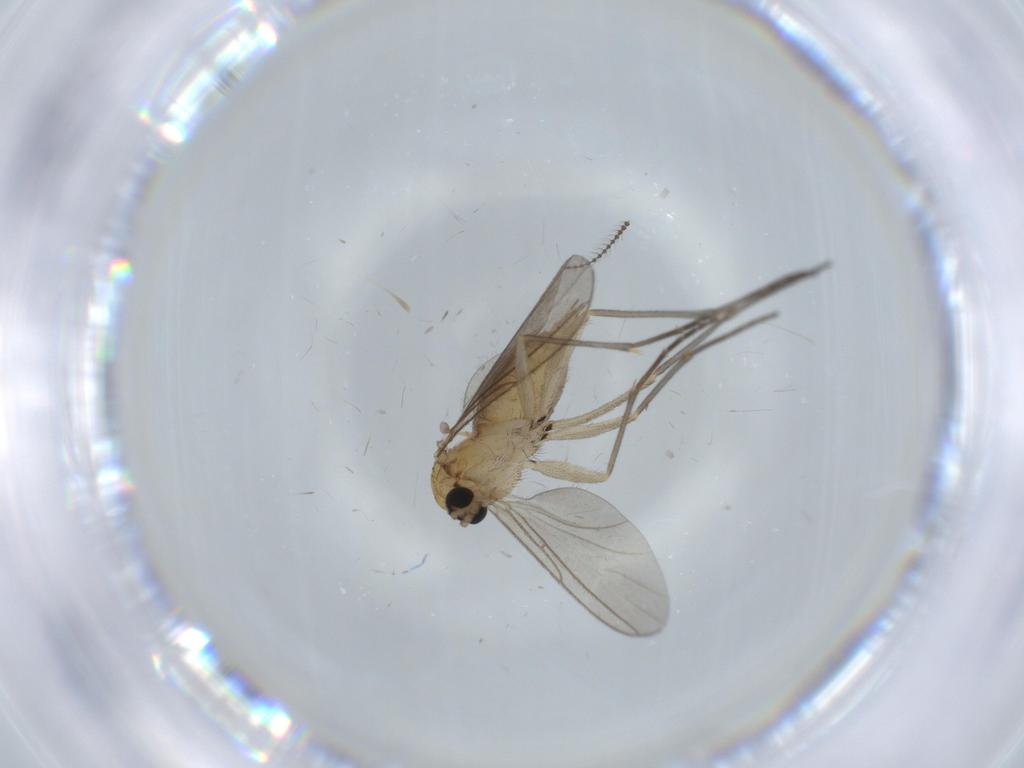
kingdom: Animalia
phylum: Arthropoda
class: Insecta
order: Diptera
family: Sciaridae
